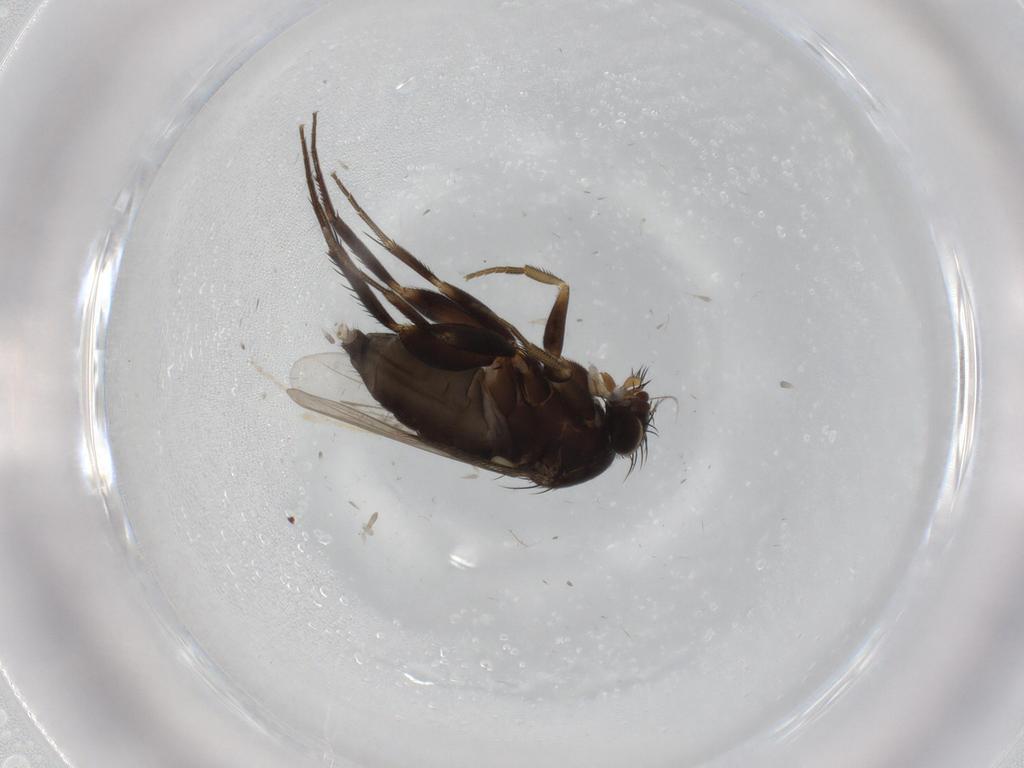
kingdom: Animalia
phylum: Arthropoda
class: Insecta
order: Diptera
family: Phoridae
